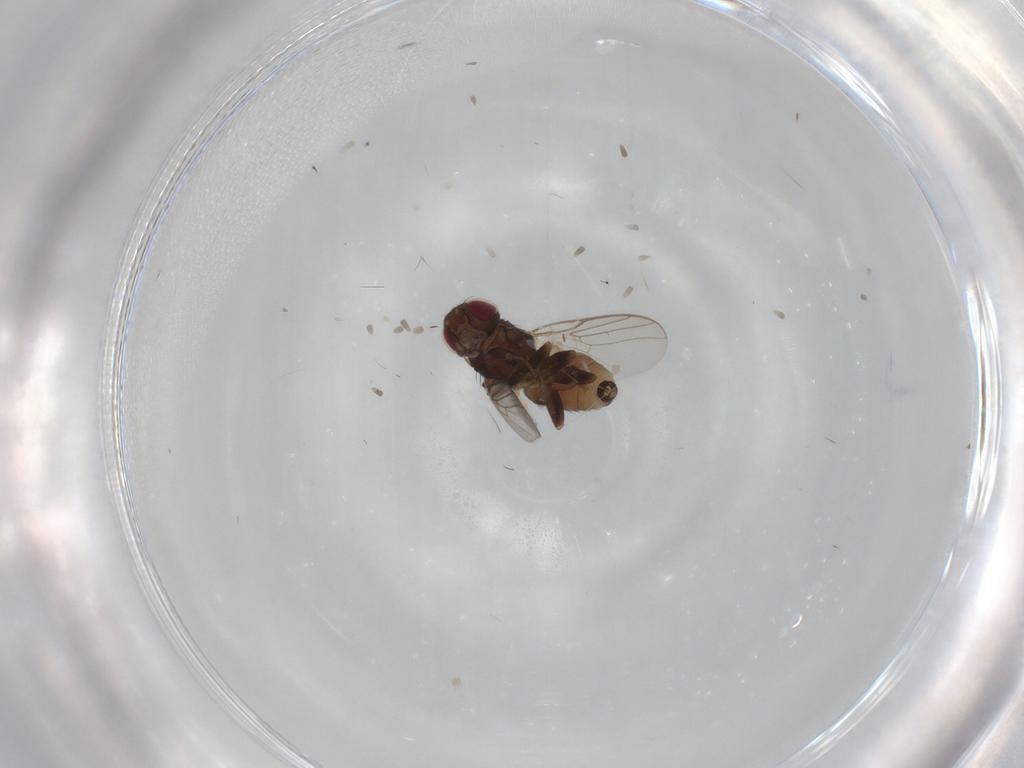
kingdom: Animalia
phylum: Arthropoda
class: Insecta
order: Diptera
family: Chloropidae
